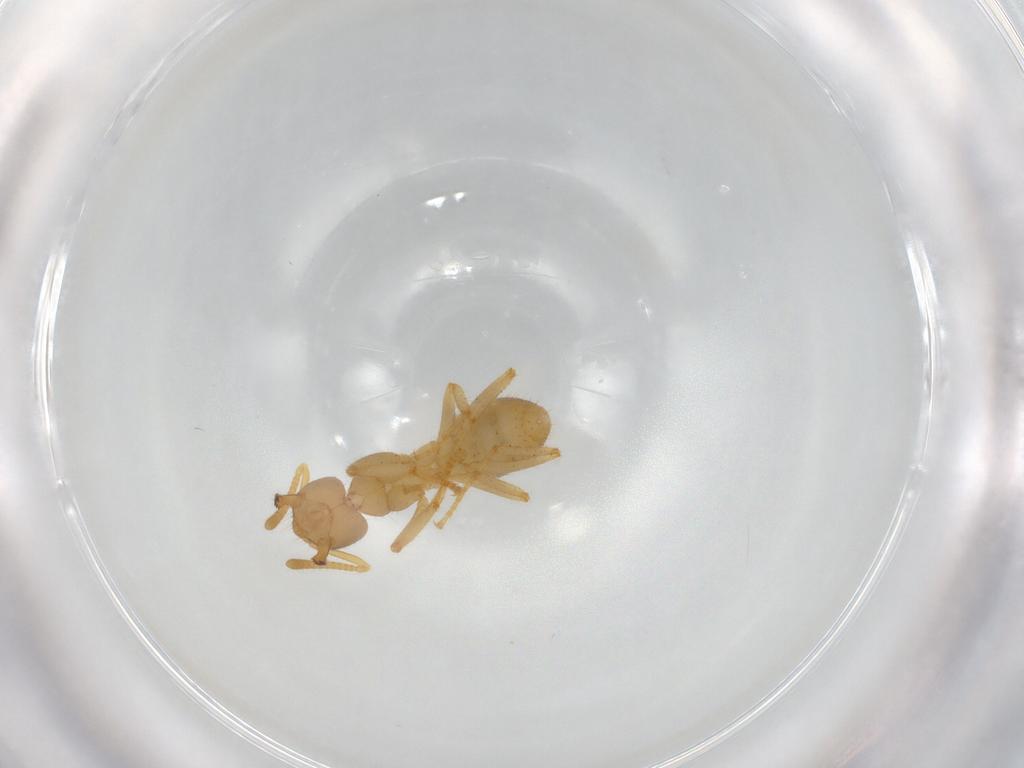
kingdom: Animalia
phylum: Arthropoda
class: Insecta
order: Hymenoptera
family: Formicidae
